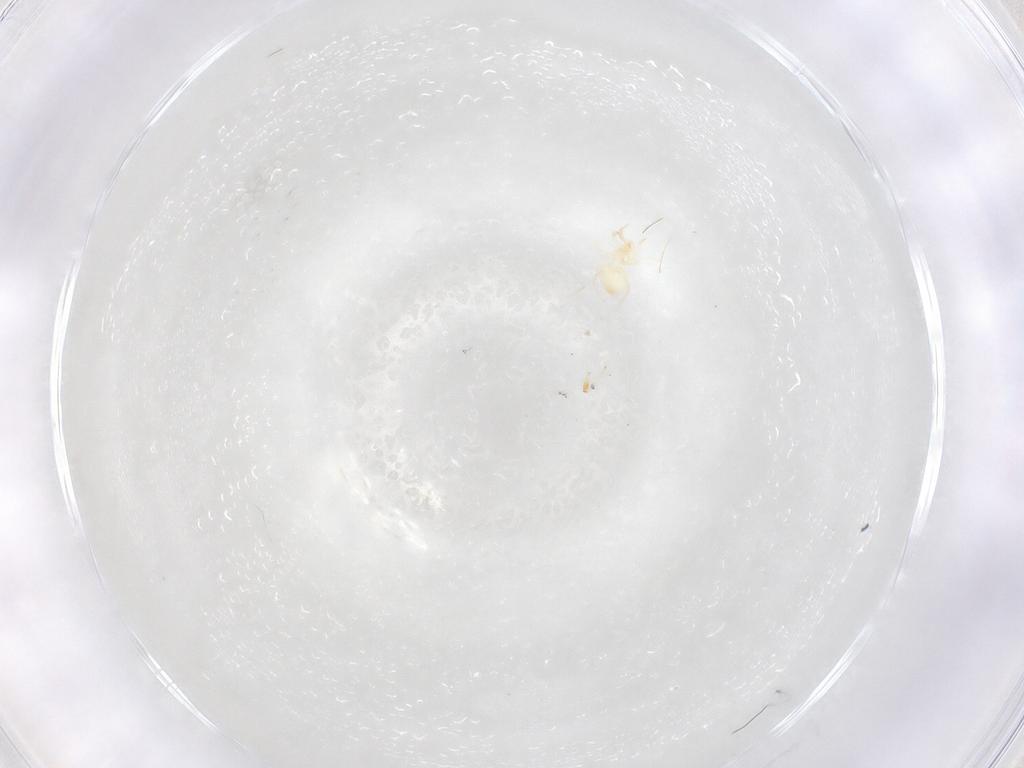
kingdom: Animalia
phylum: Arthropoda
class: Arachnida
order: Mesostigmata
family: Phytoseiidae
